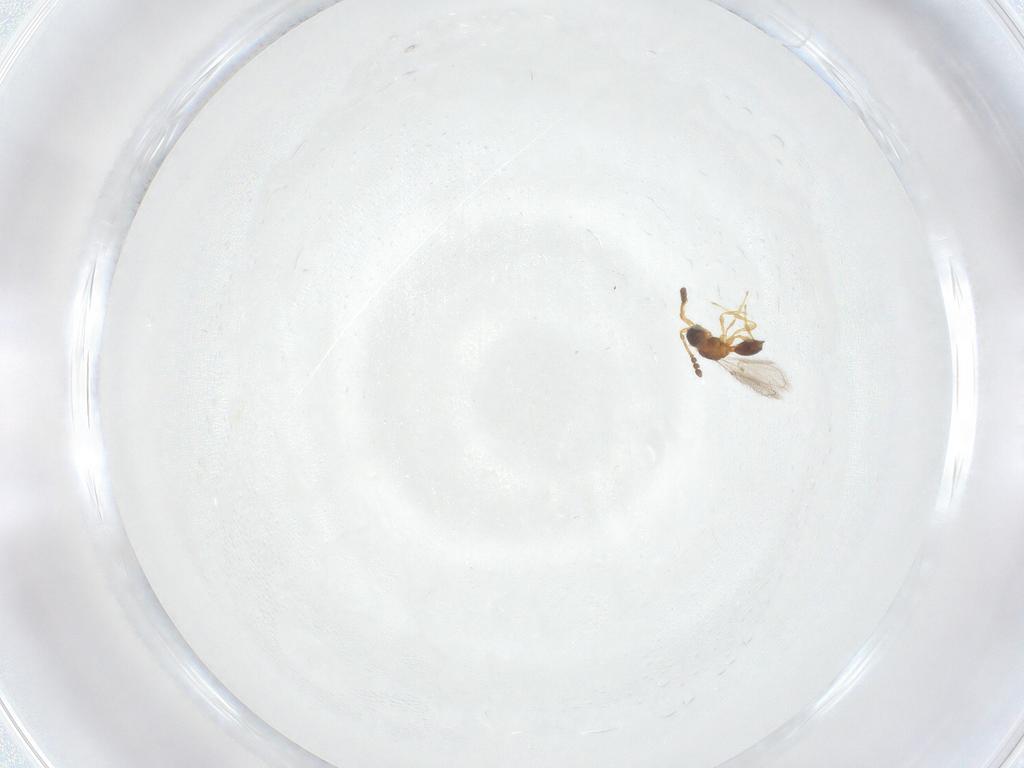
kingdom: Animalia
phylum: Arthropoda
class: Insecta
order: Hymenoptera
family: Diapriidae
